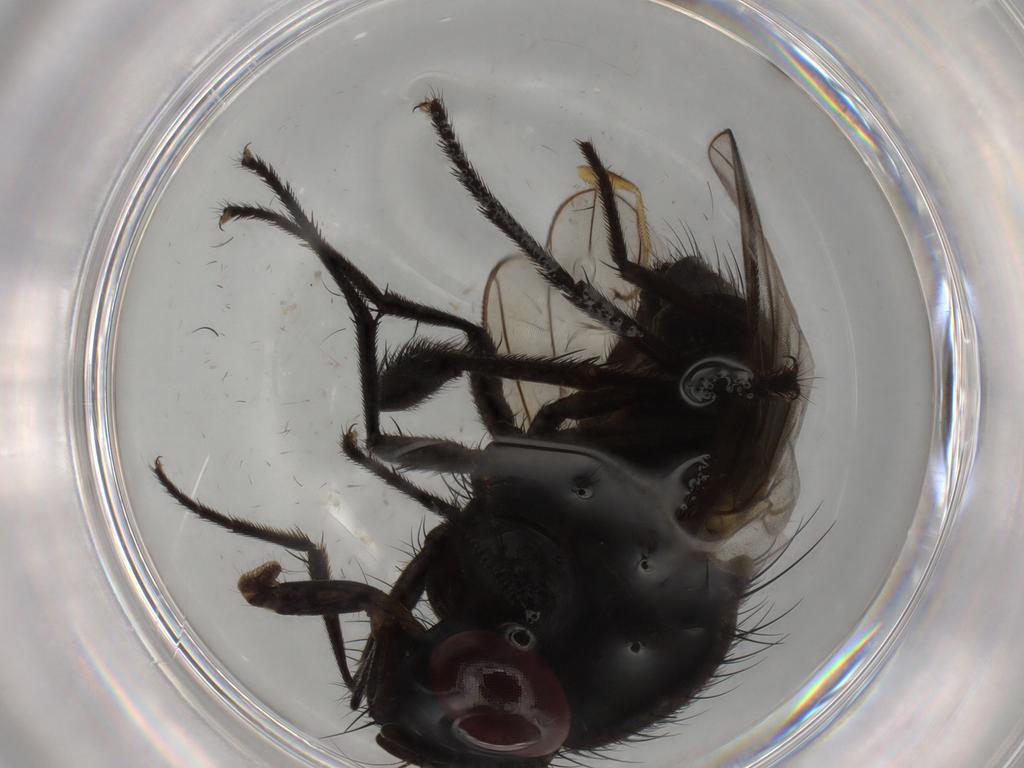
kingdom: Animalia
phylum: Arthropoda
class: Insecta
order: Diptera
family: Muscidae
